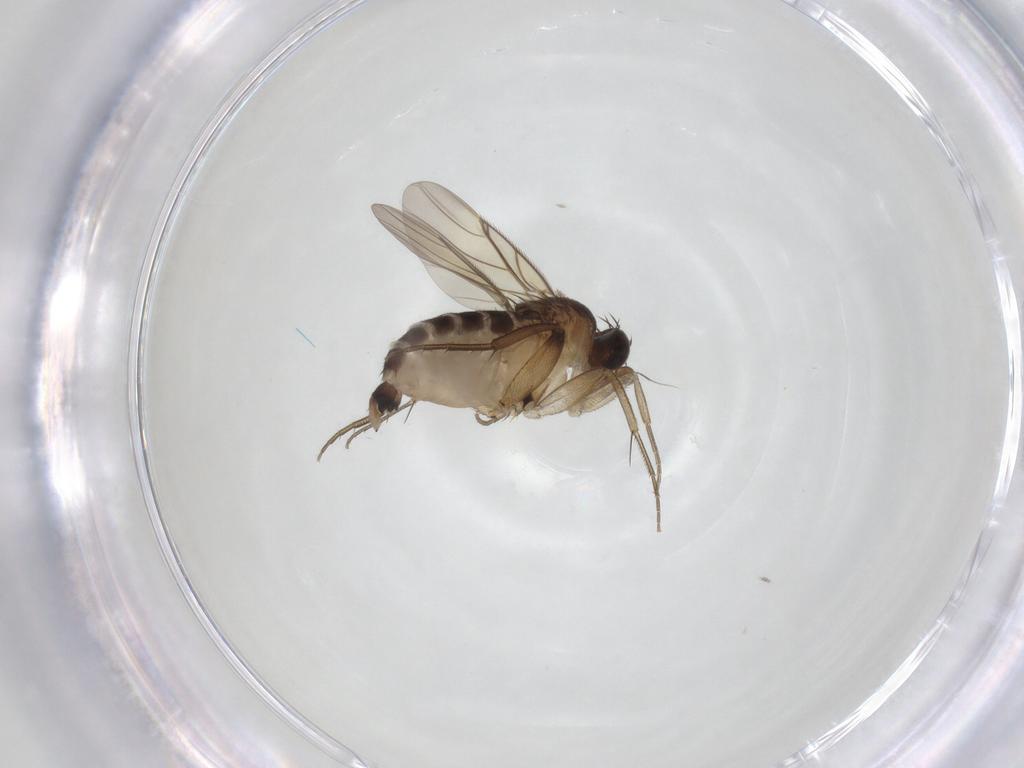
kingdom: Animalia
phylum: Arthropoda
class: Insecta
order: Diptera
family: Phoridae
